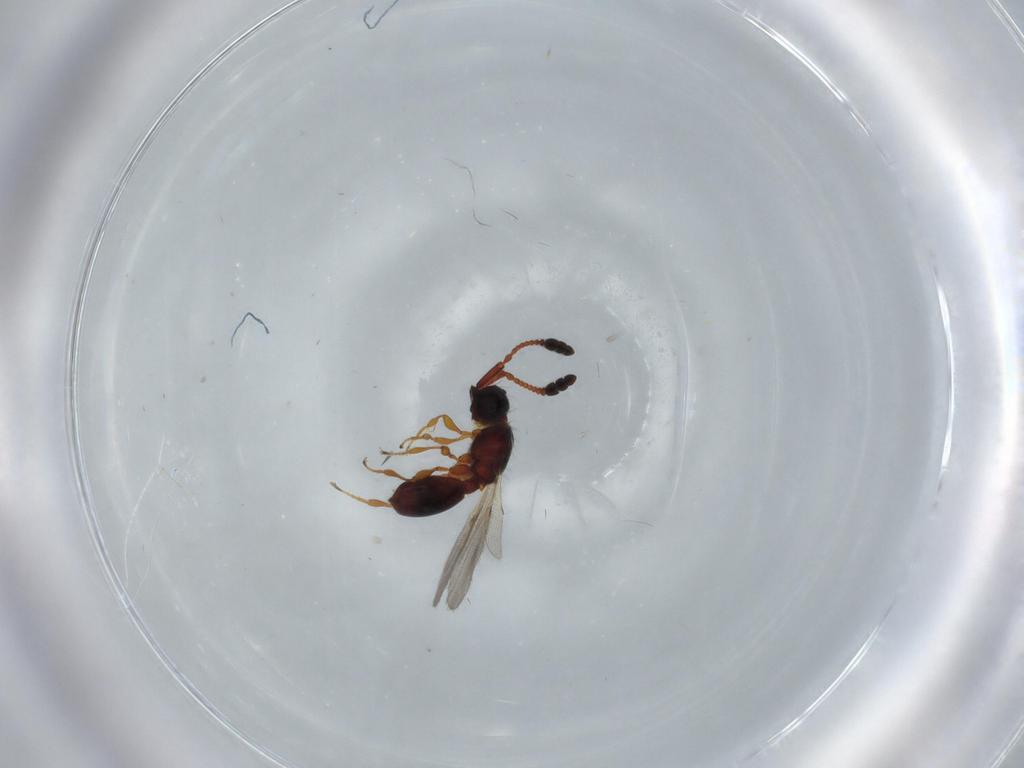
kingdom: Animalia
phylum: Arthropoda
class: Insecta
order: Hymenoptera
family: Diapriidae
